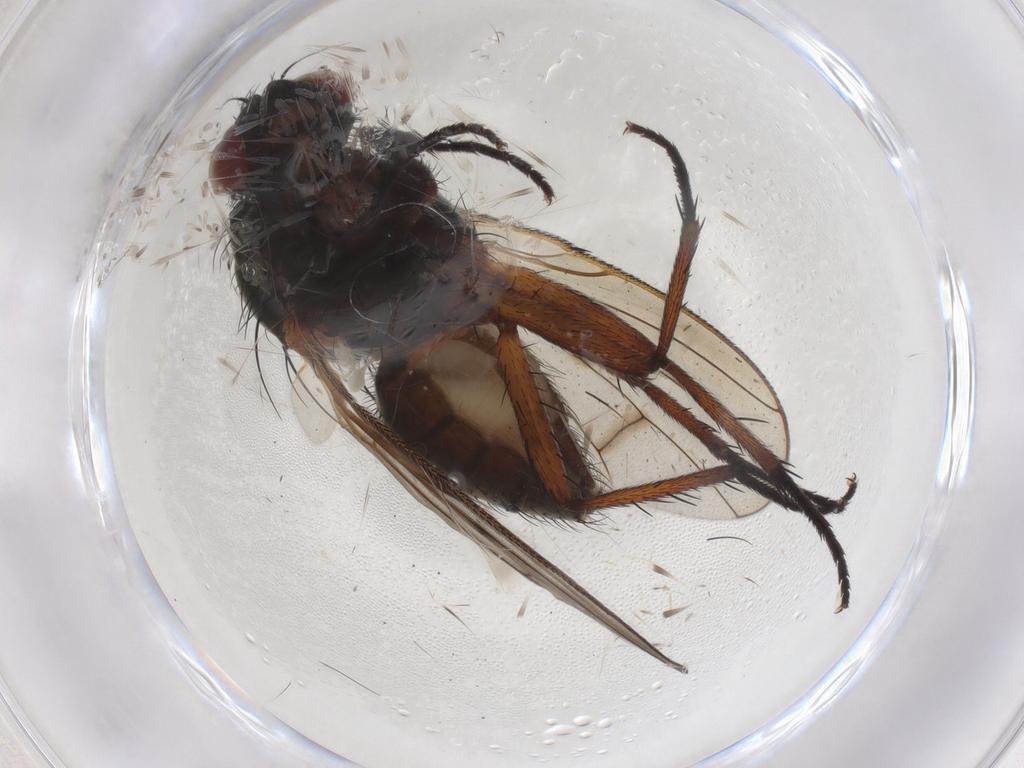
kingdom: Animalia
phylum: Arthropoda
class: Insecta
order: Diptera
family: Anthomyiidae
